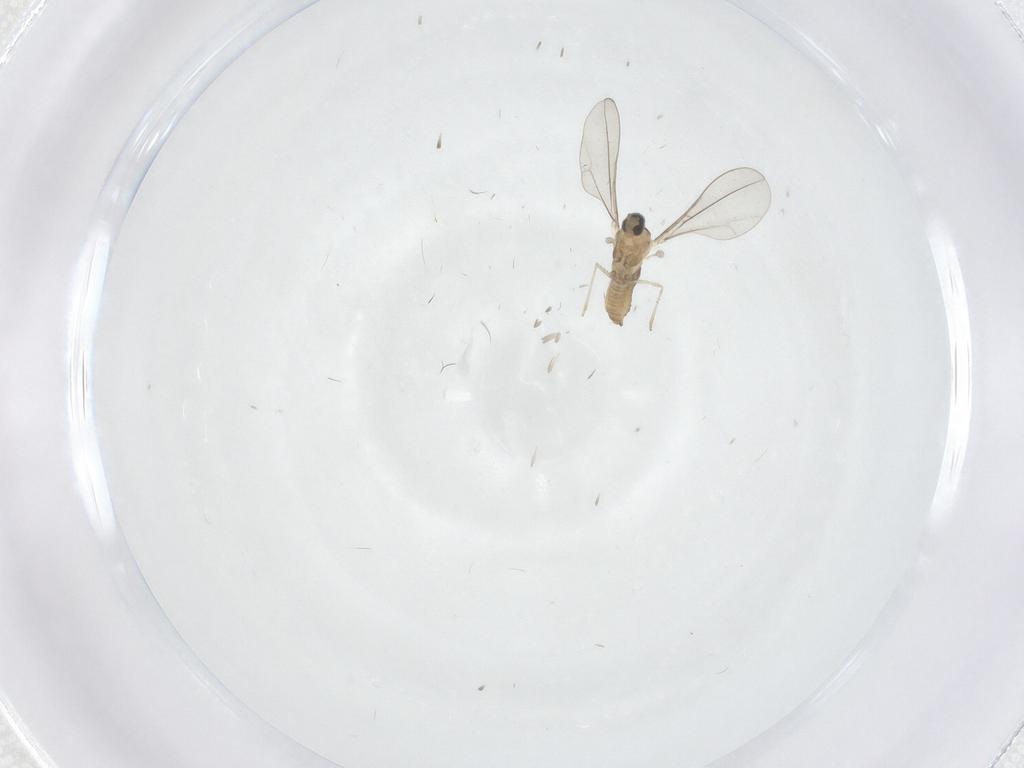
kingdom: Animalia
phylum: Arthropoda
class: Insecta
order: Diptera
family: Cecidomyiidae
